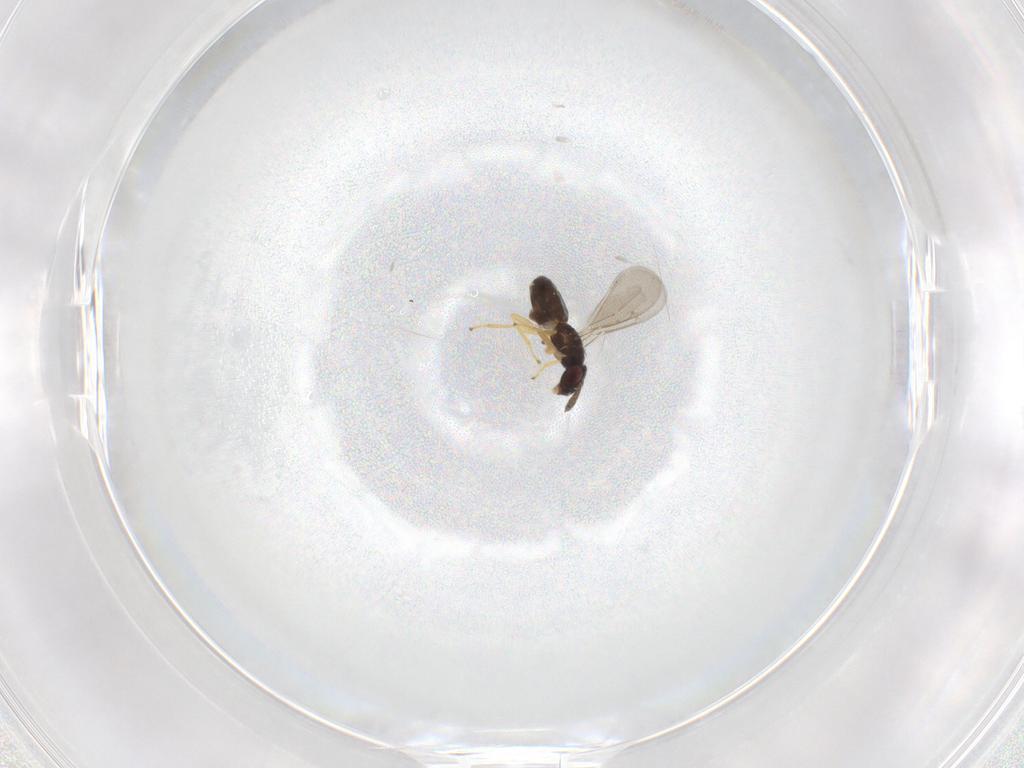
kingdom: Animalia
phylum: Arthropoda
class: Insecta
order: Hymenoptera
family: Eulophidae
